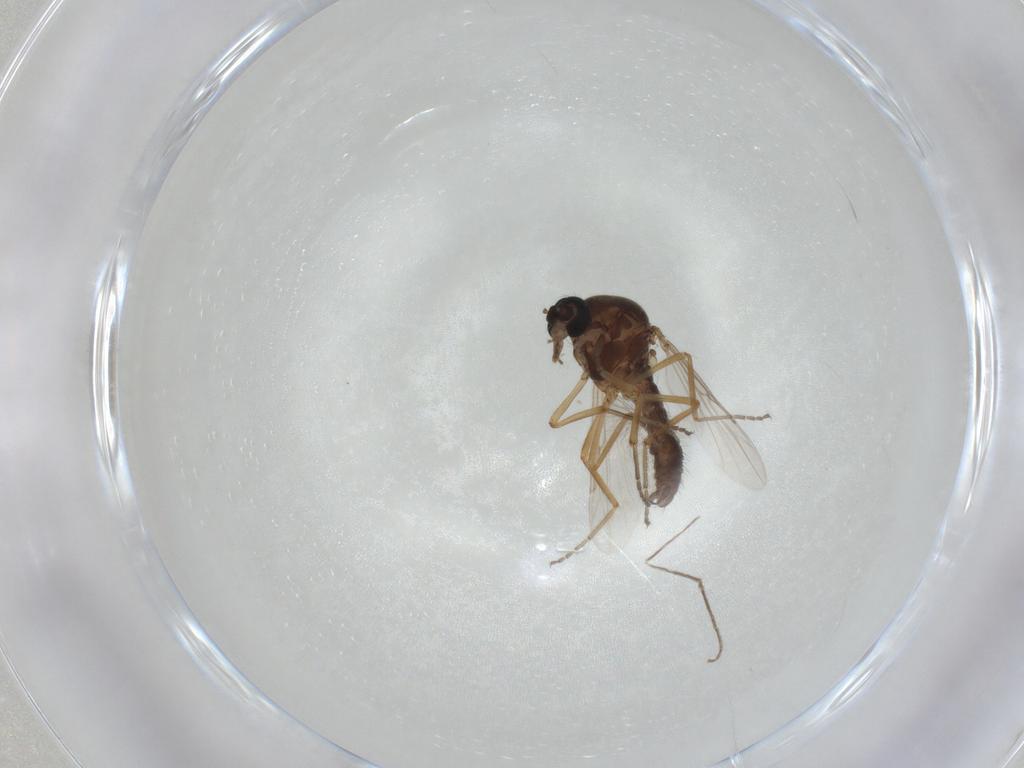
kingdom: Animalia
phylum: Arthropoda
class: Insecta
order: Diptera
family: Ceratopogonidae
